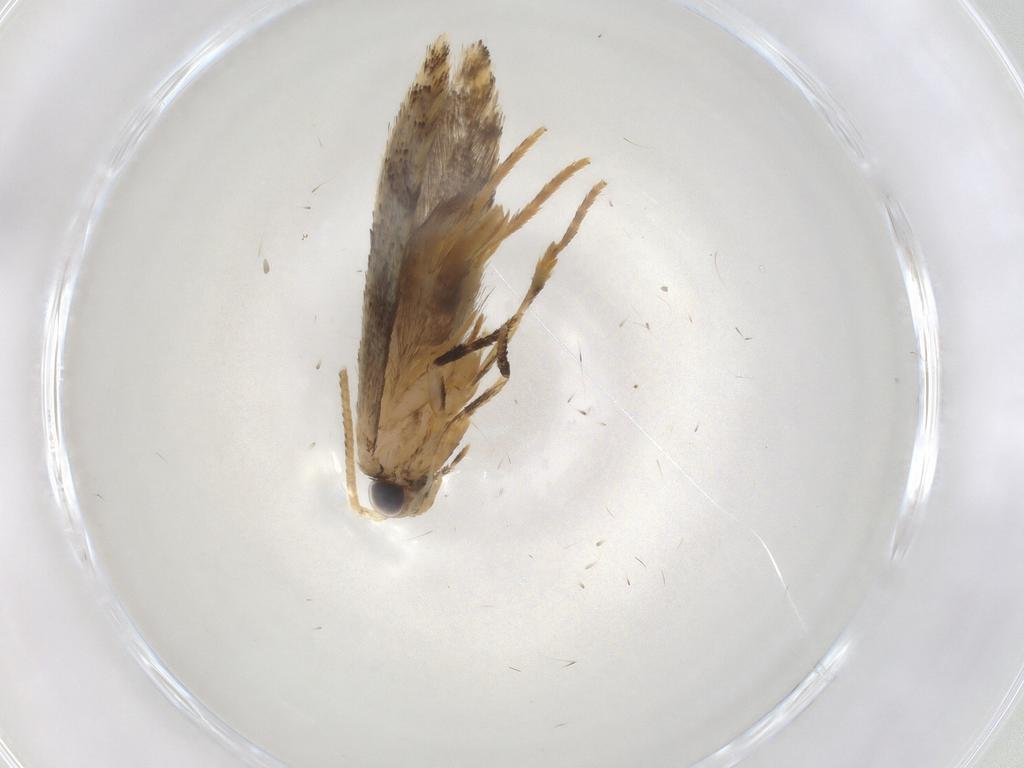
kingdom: Animalia
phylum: Arthropoda
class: Insecta
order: Lepidoptera
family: Tineidae
